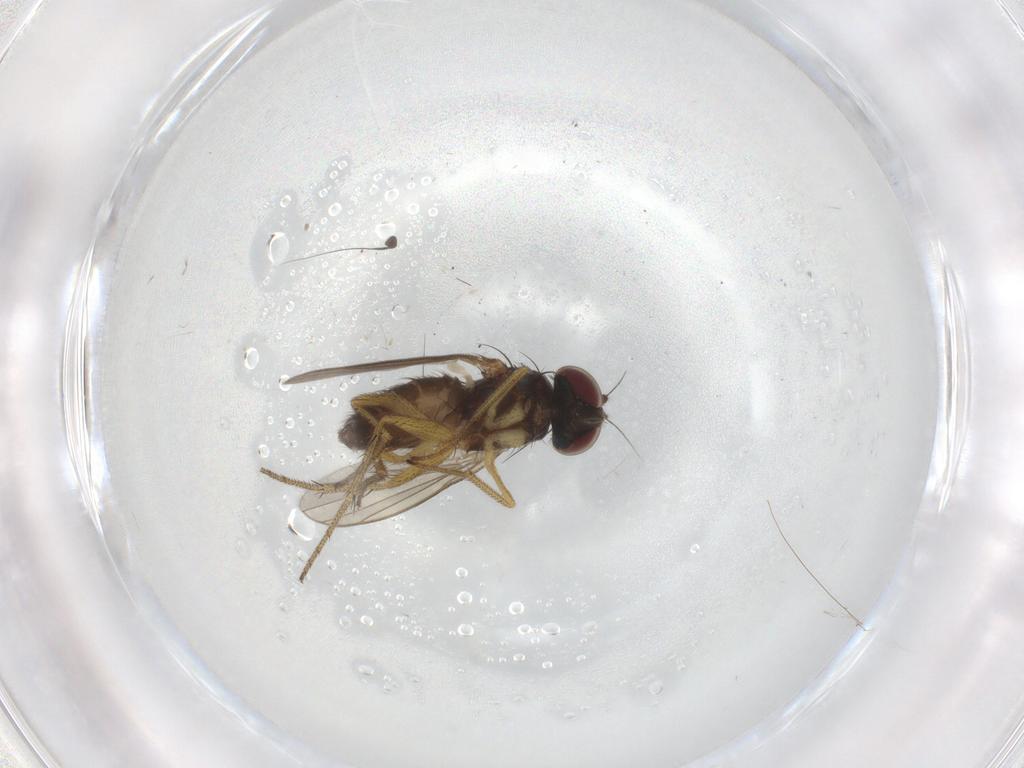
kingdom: Animalia
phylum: Arthropoda
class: Insecta
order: Diptera
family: Dolichopodidae
